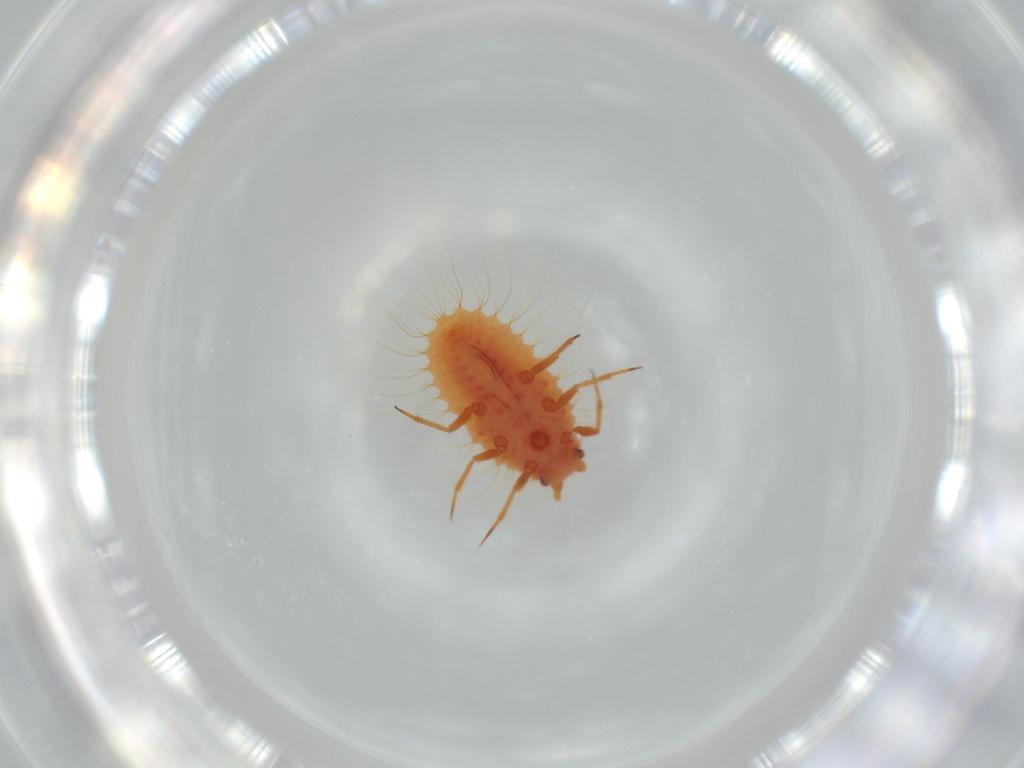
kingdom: Animalia
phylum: Arthropoda
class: Insecta
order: Hemiptera
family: Coccoidea_incertae_sedis
